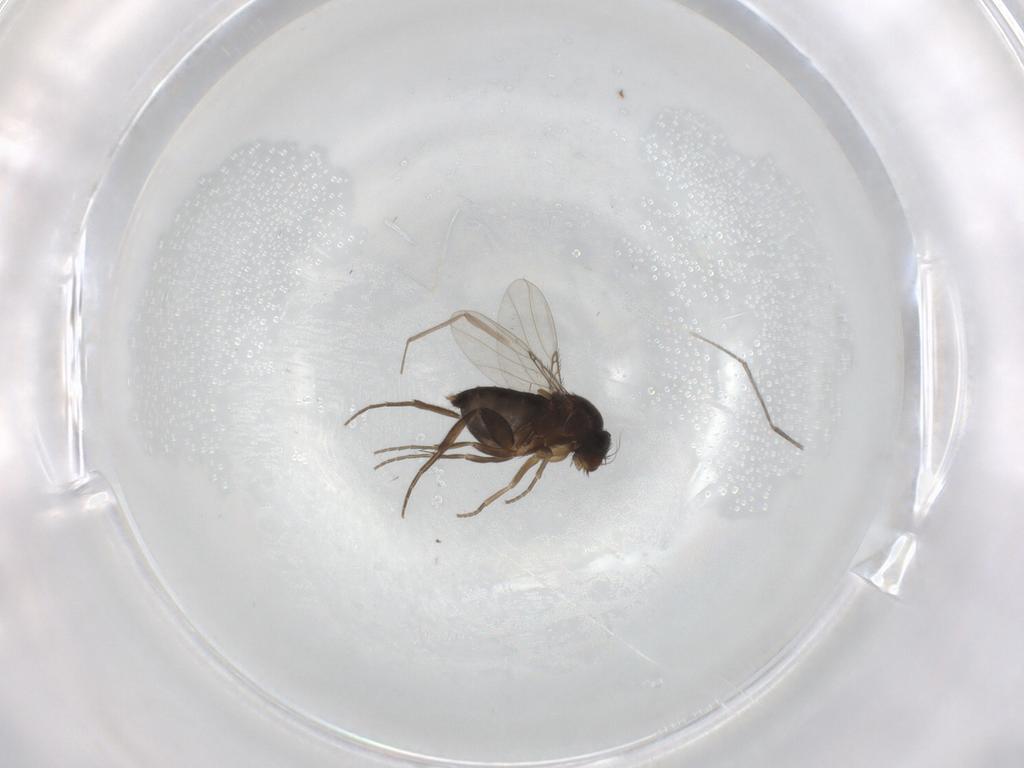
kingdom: Animalia
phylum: Arthropoda
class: Insecta
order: Diptera
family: Phoridae
